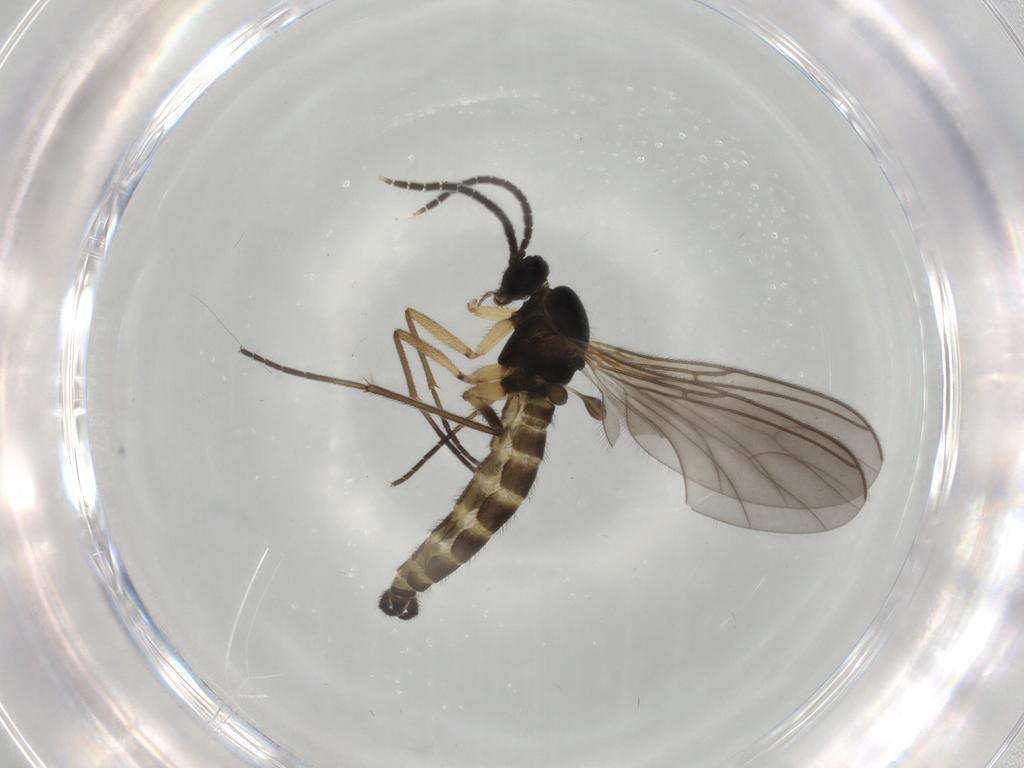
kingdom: Animalia
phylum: Arthropoda
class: Insecta
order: Diptera
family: Sciaridae
